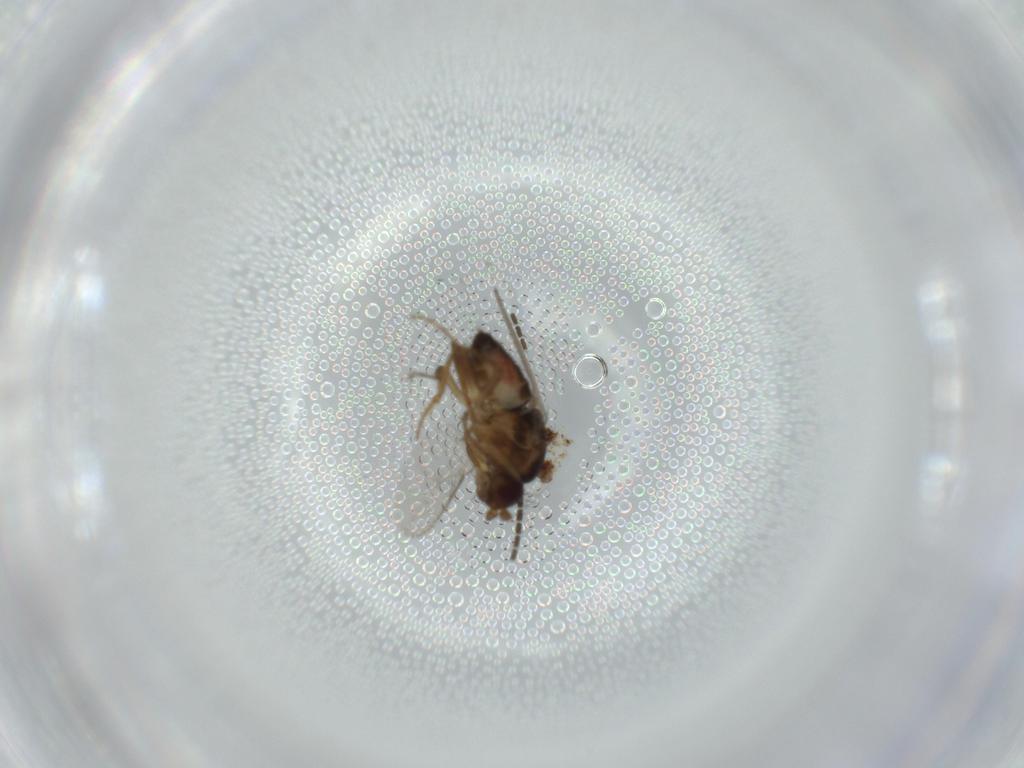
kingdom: Animalia
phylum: Arthropoda
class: Insecta
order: Diptera
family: Sciaridae
